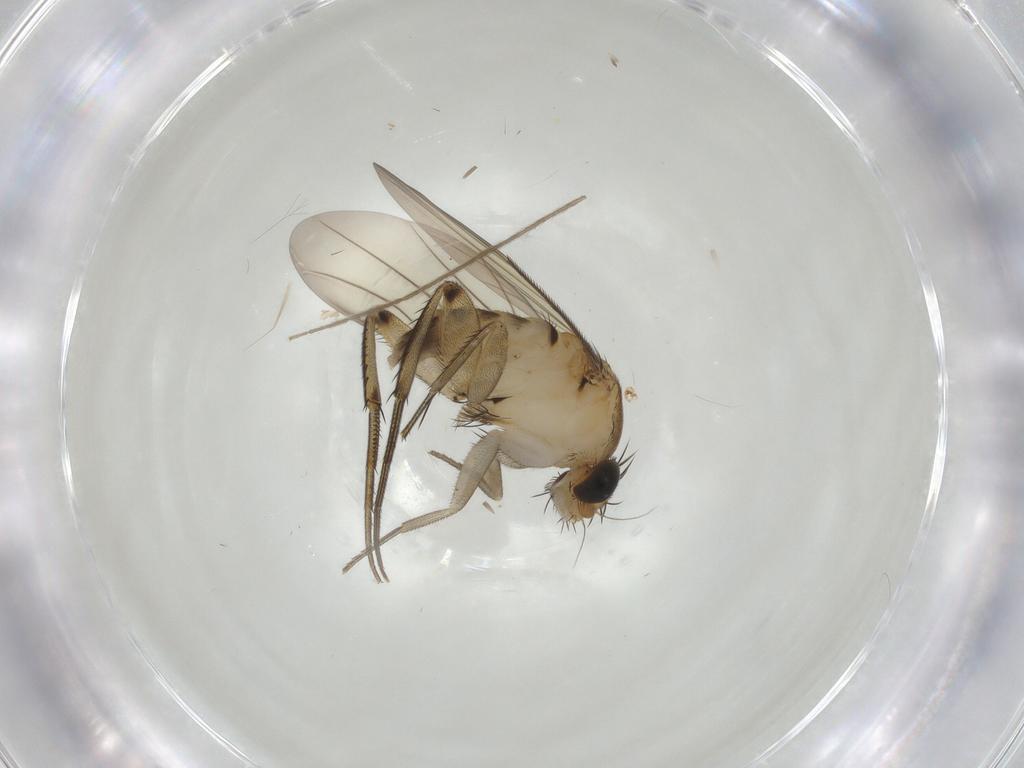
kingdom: Animalia
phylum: Arthropoda
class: Insecta
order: Diptera
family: Phoridae
